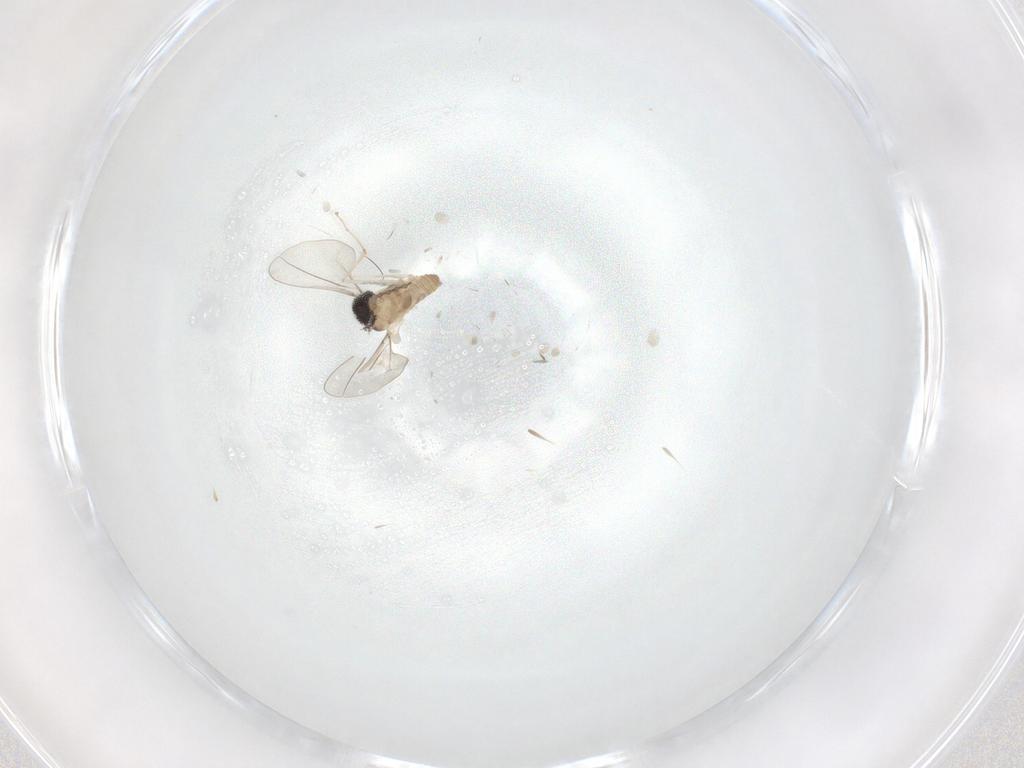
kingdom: Animalia
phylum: Arthropoda
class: Insecta
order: Diptera
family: Cecidomyiidae
